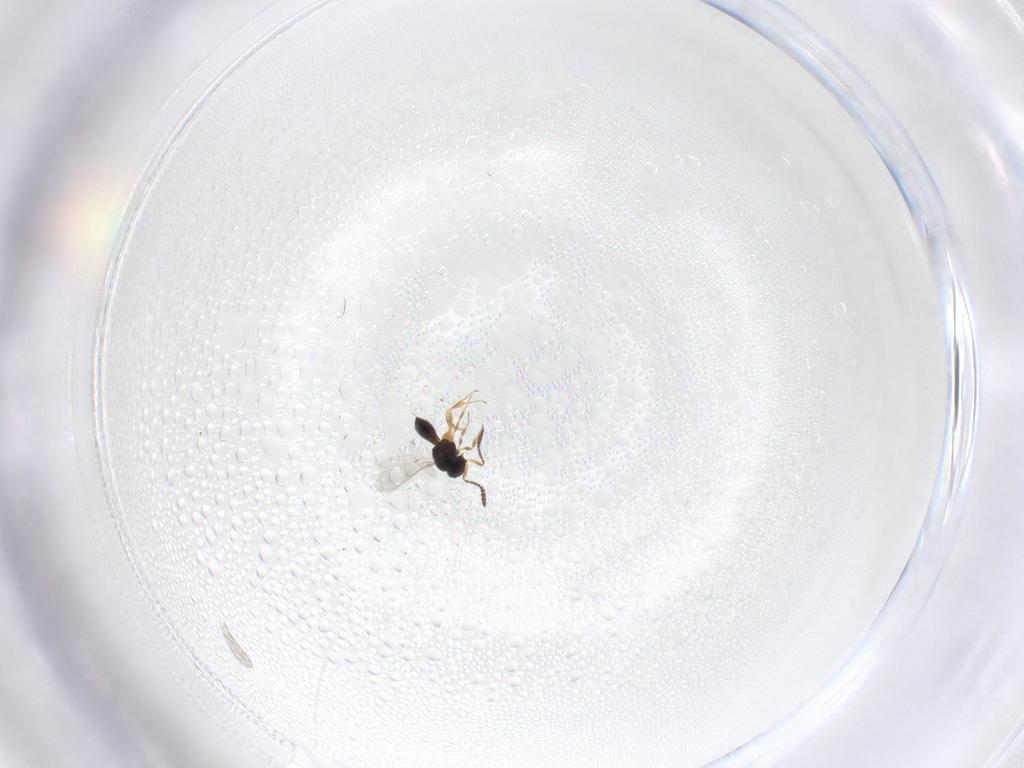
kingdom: Animalia
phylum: Arthropoda
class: Insecta
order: Hymenoptera
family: Scelionidae
